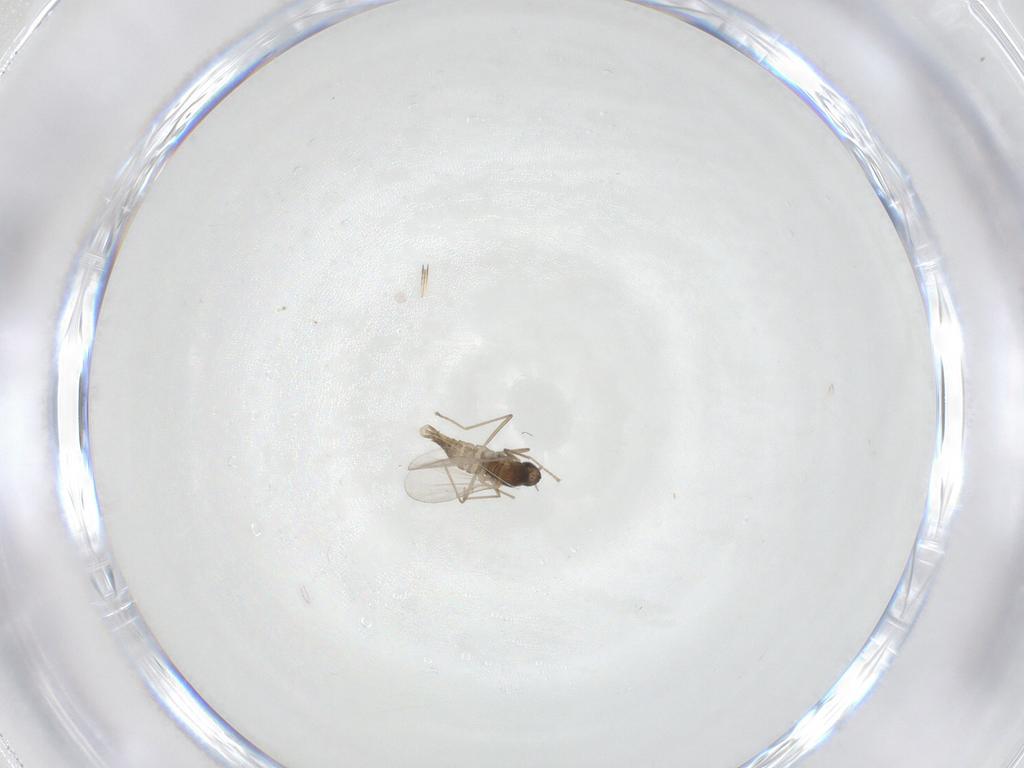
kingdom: Animalia
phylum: Arthropoda
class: Insecta
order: Diptera
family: Cecidomyiidae
